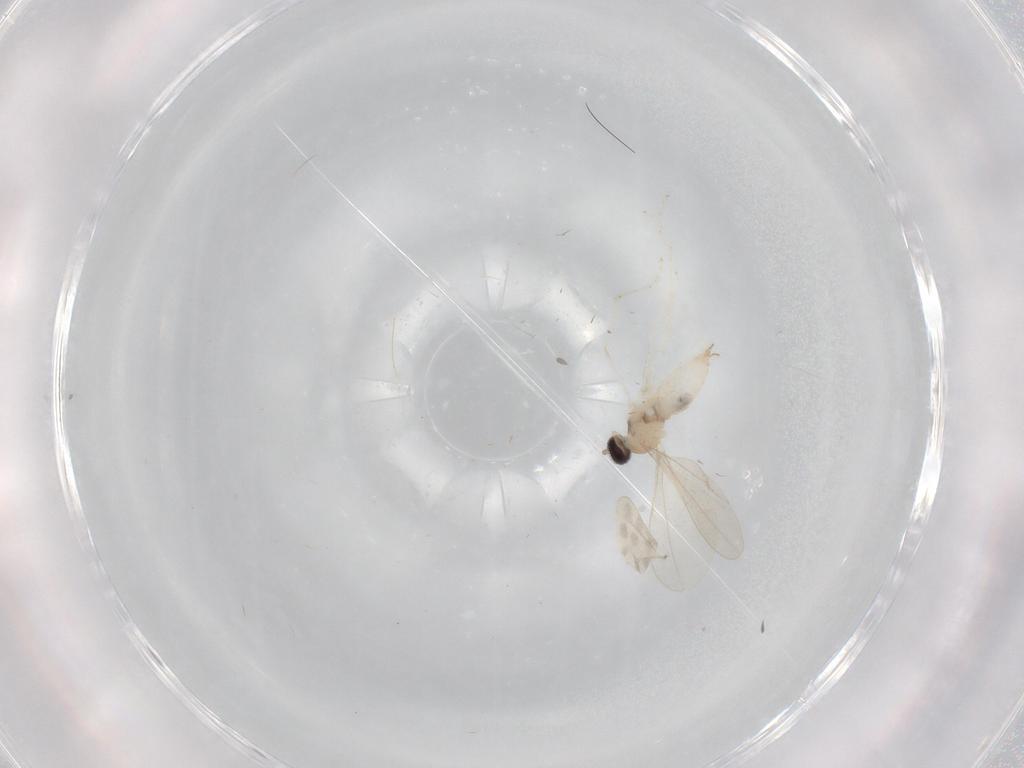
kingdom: Animalia
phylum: Arthropoda
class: Insecta
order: Diptera
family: Cecidomyiidae
